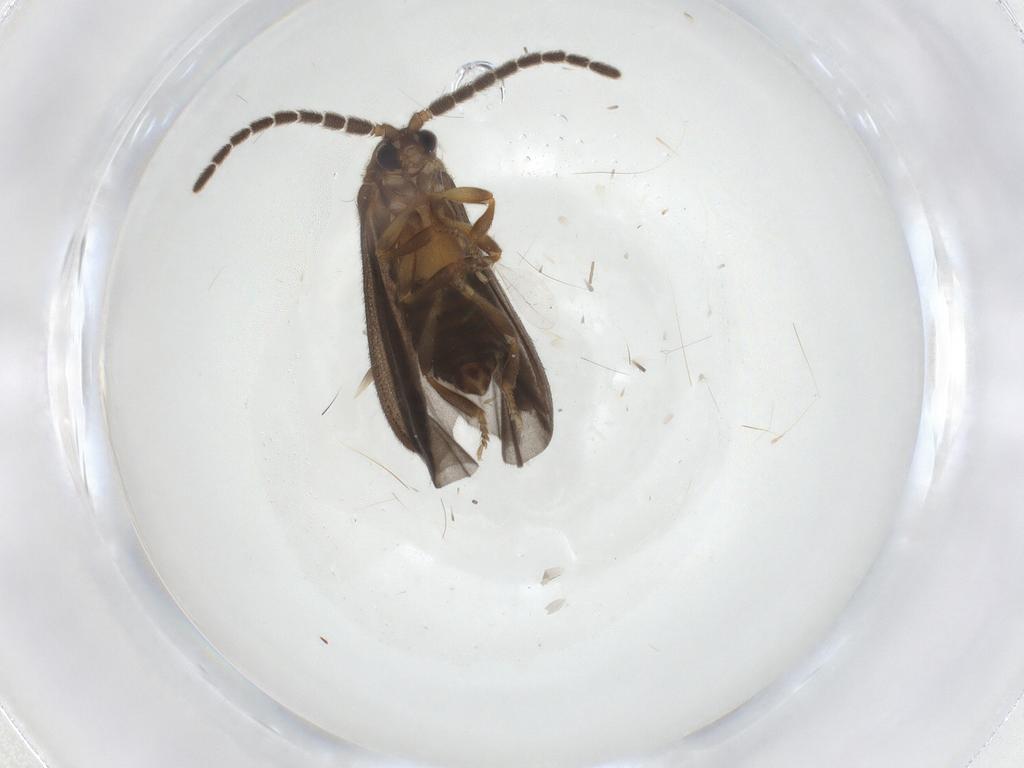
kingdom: Animalia
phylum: Arthropoda
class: Insecta
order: Coleoptera
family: Lycidae
